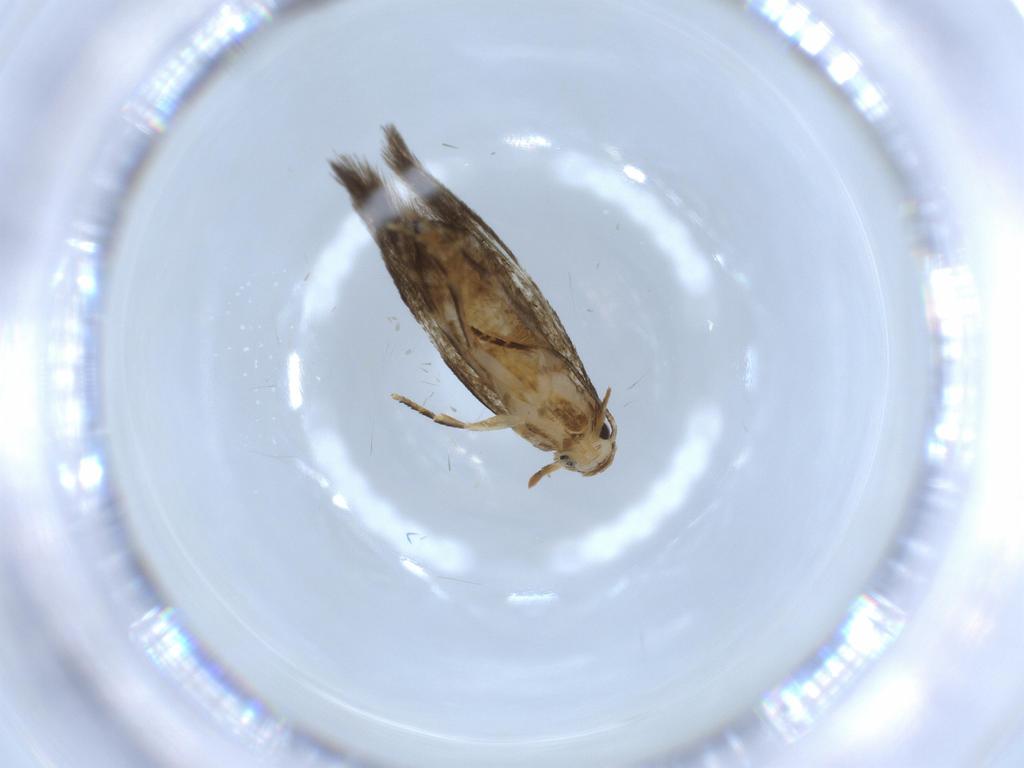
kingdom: Animalia
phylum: Arthropoda
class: Insecta
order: Lepidoptera
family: Tineidae
